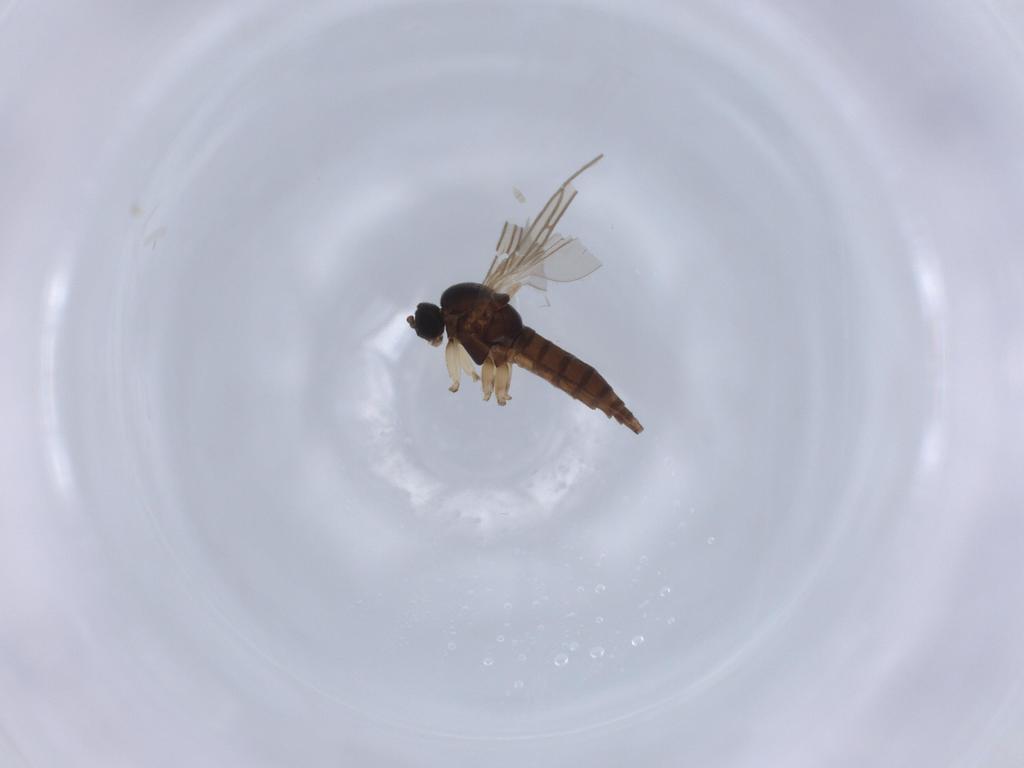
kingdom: Animalia
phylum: Arthropoda
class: Insecta
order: Diptera
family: Sciaridae
